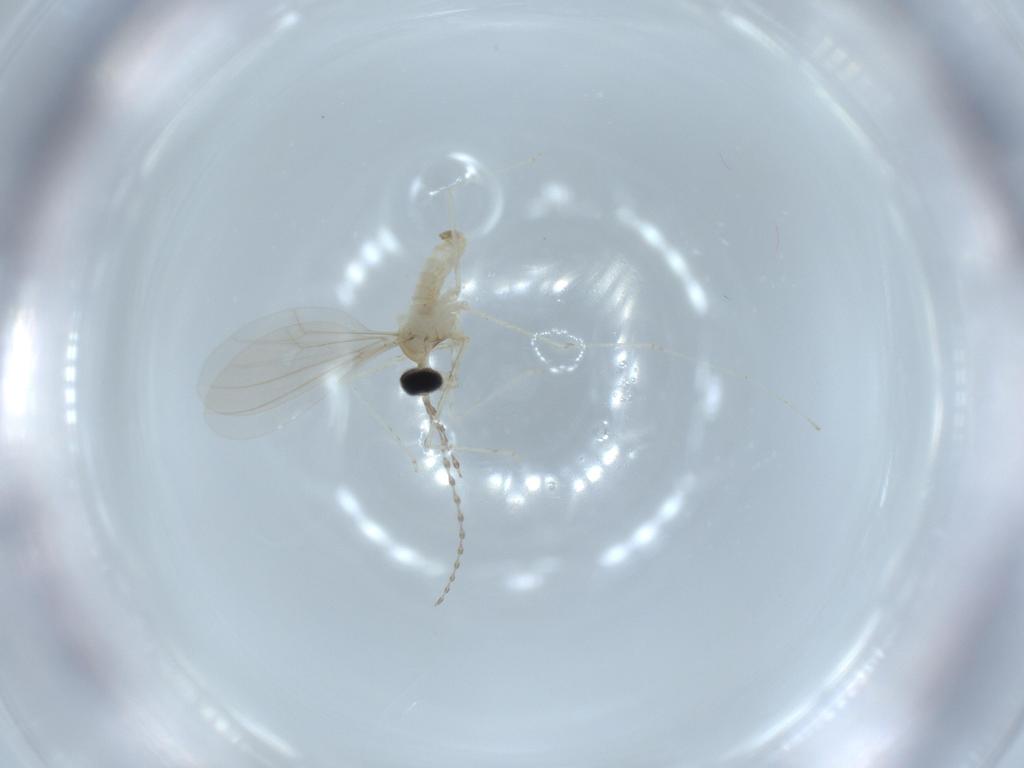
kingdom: Animalia
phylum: Arthropoda
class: Insecta
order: Diptera
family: Cecidomyiidae
